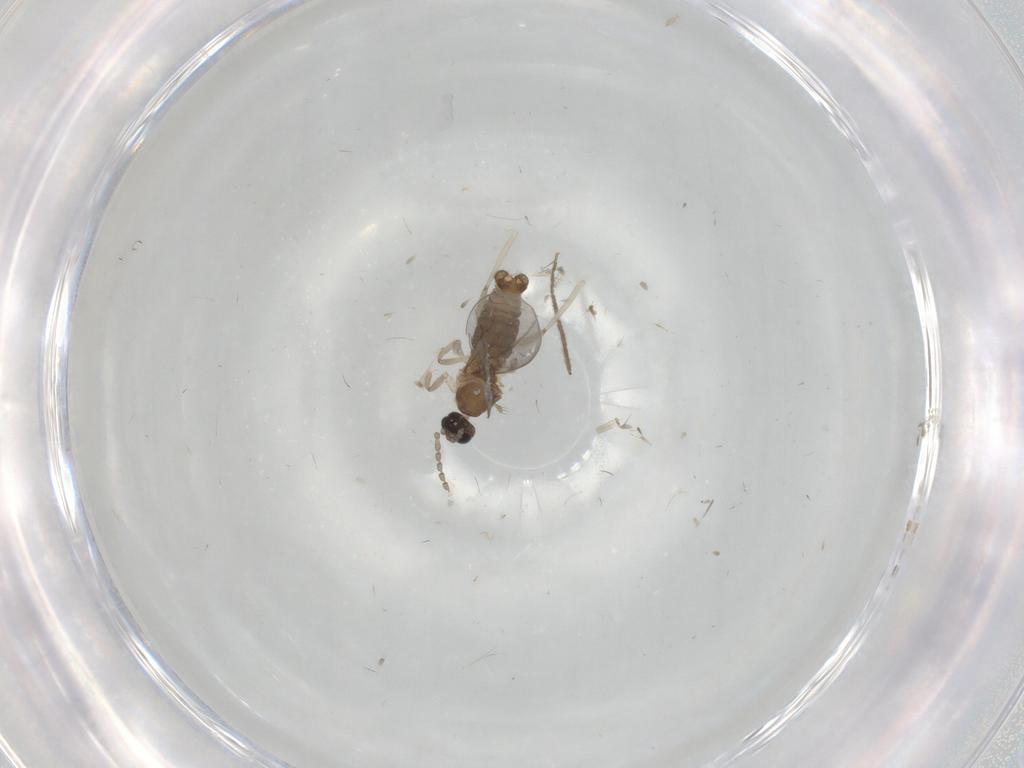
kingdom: Animalia
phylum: Arthropoda
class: Insecta
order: Diptera
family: Cecidomyiidae
